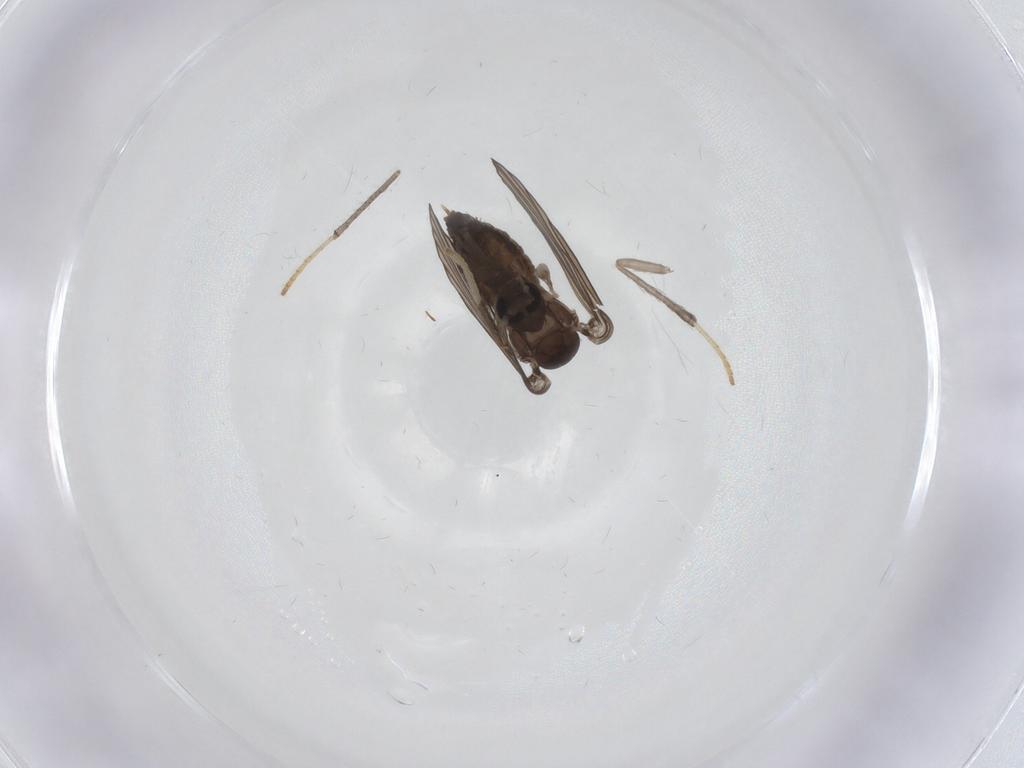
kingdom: Animalia
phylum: Arthropoda
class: Insecta
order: Diptera
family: Psychodidae
